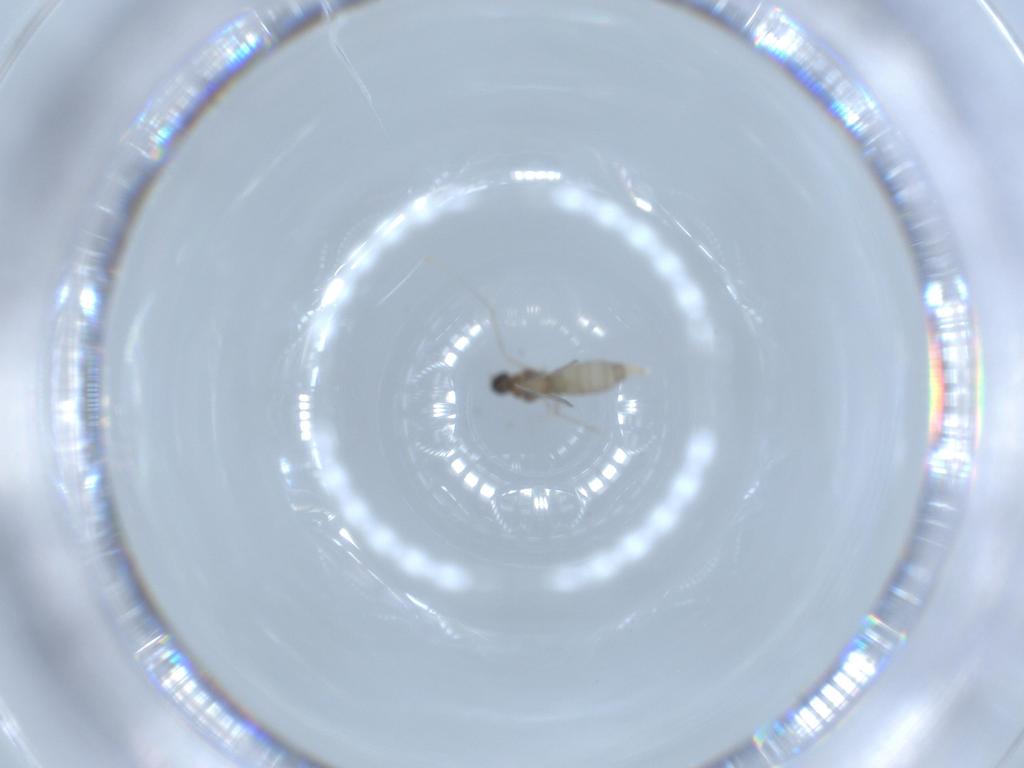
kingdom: Animalia
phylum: Arthropoda
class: Insecta
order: Diptera
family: Cecidomyiidae
